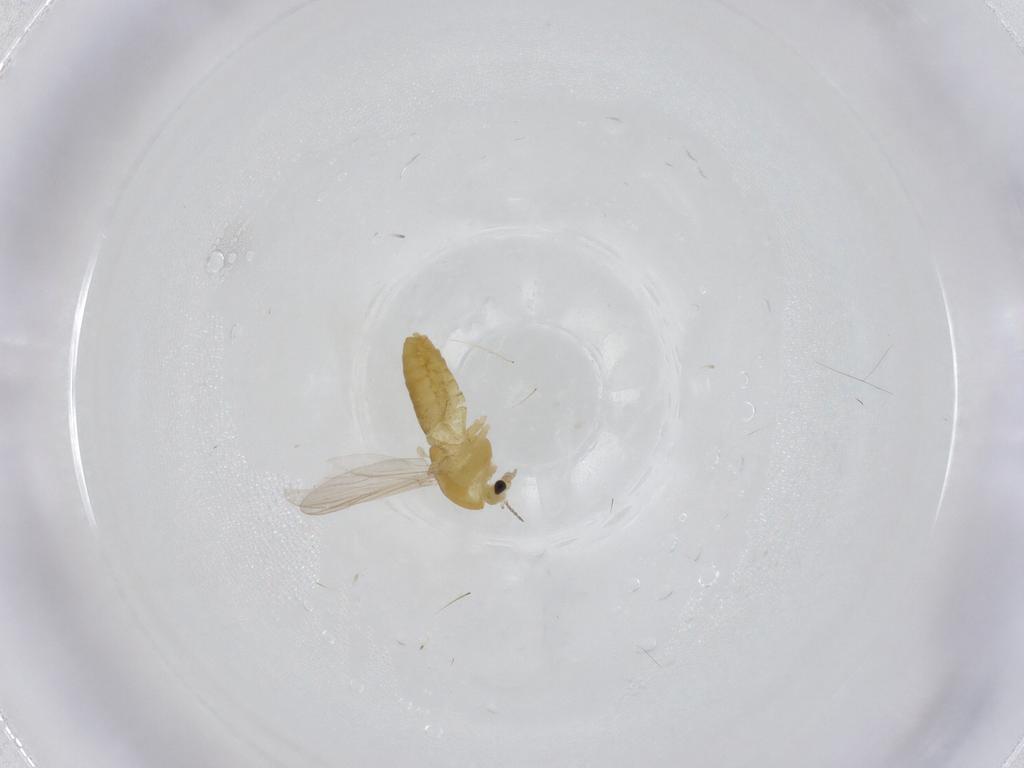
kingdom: Animalia
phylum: Arthropoda
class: Insecta
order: Diptera
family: Chironomidae
